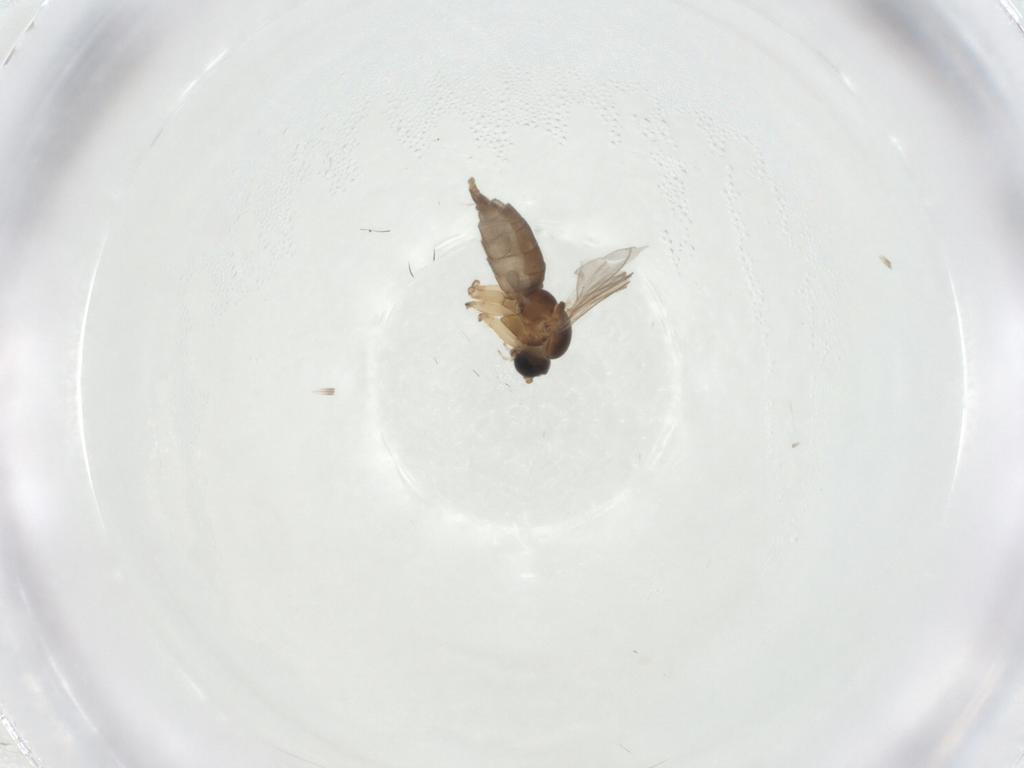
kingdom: Animalia
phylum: Arthropoda
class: Insecta
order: Diptera
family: Sciaridae
